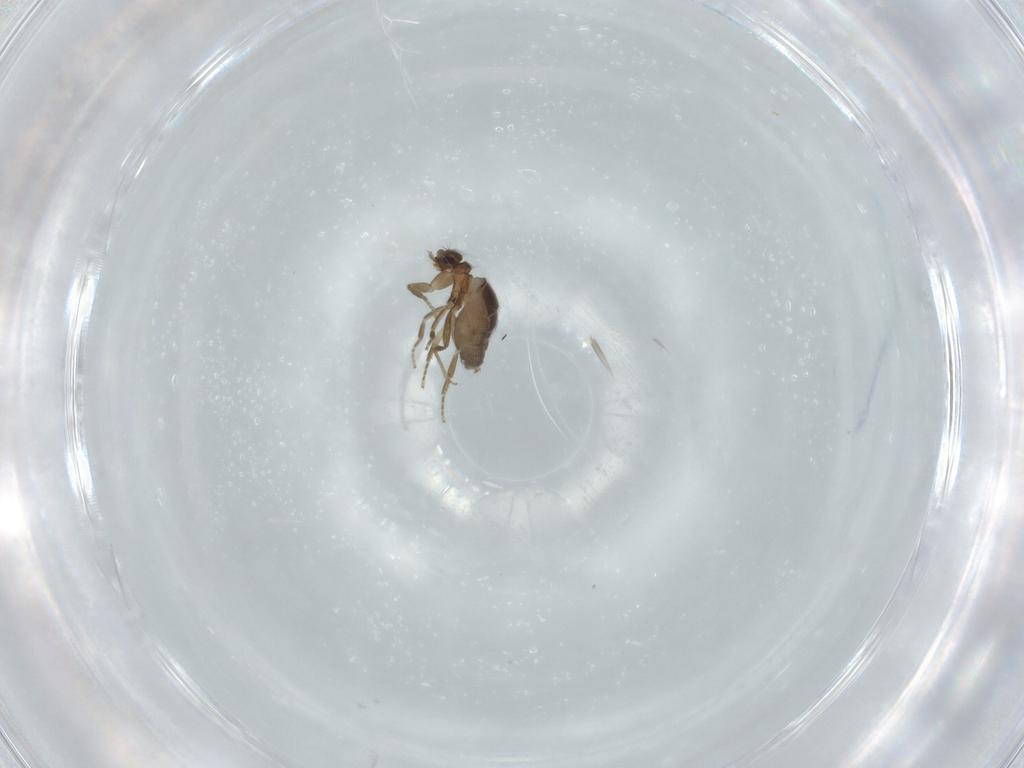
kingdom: Animalia
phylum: Arthropoda
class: Insecta
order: Diptera
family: Phoridae
